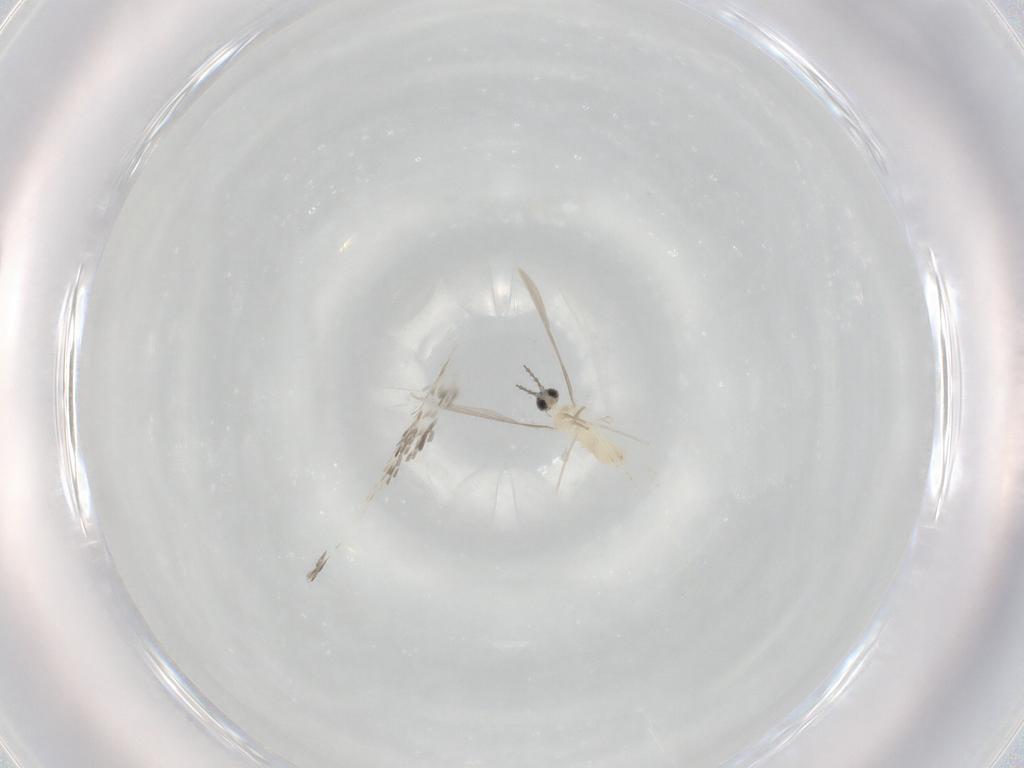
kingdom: Animalia
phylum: Arthropoda
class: Insecta
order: Diptera
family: Cecidomyiidae
